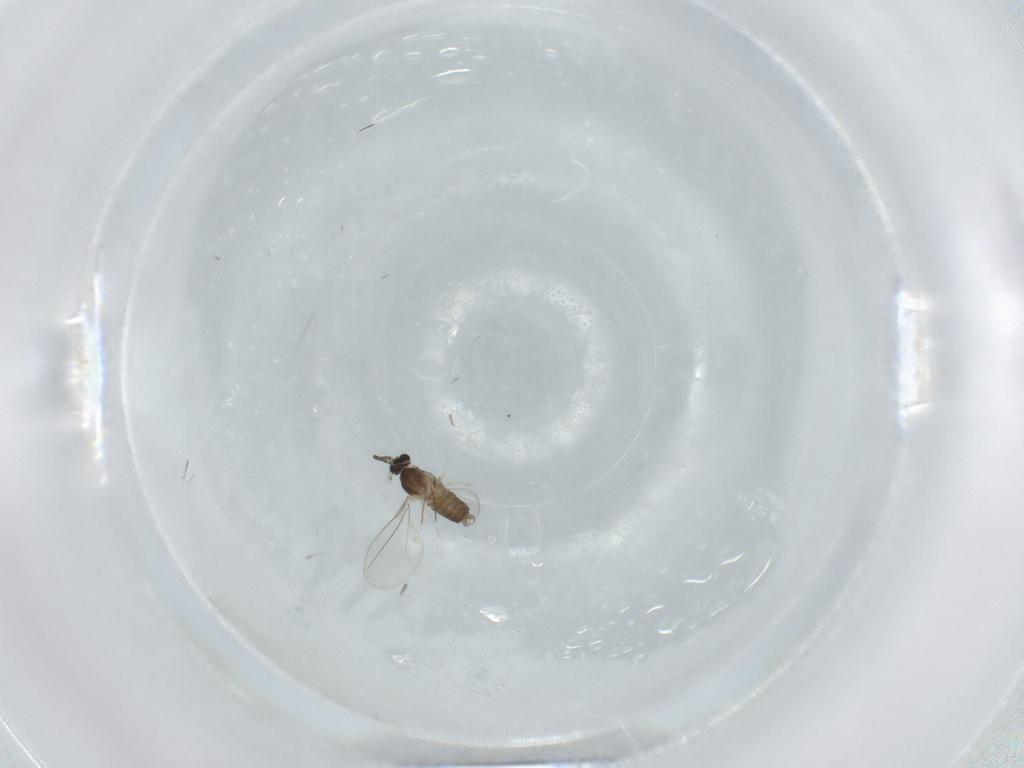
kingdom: Animalia
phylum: Arthropoda
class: Insecta
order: Diptera
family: Cecidomyiidae
